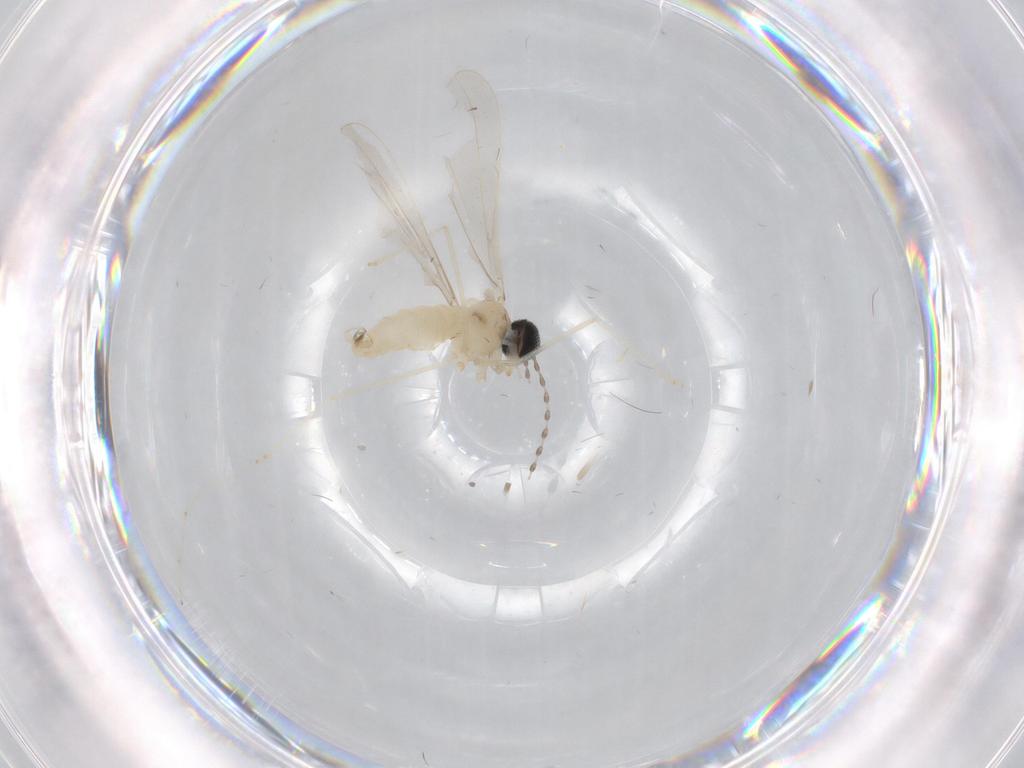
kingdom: Animalia
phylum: Arthropoda
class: Insecta
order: Diptera
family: Cecidomyiidae
